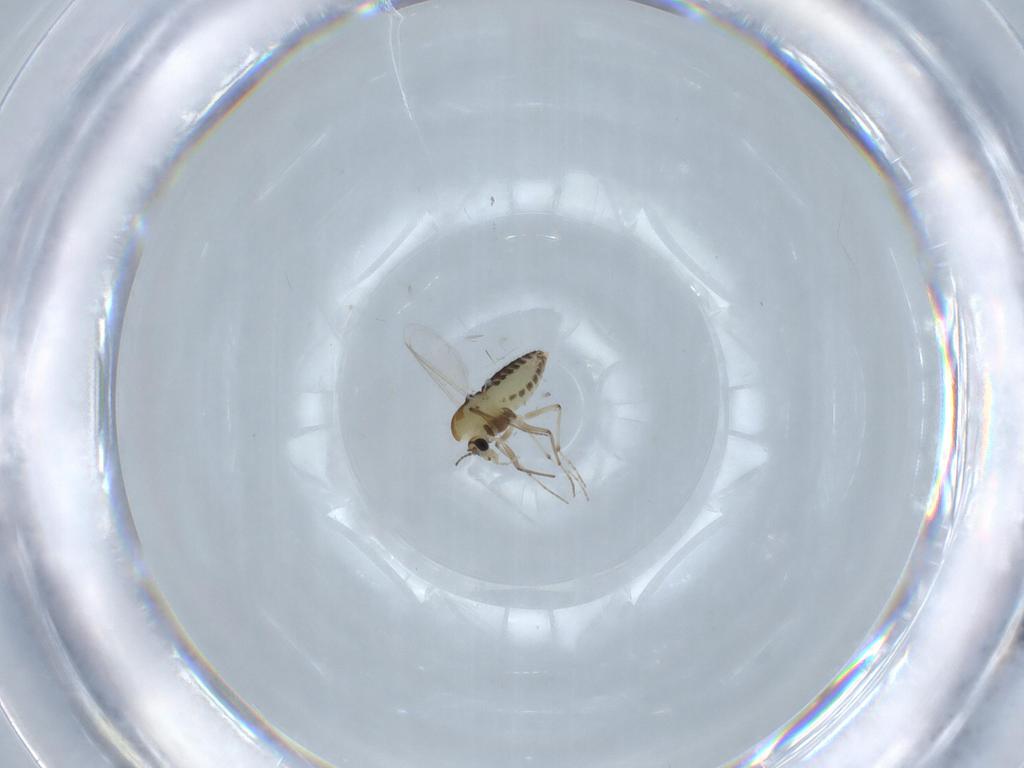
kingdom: Animalia
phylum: Arthropoda
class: Insecta
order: Diptera
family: Chironomidae
